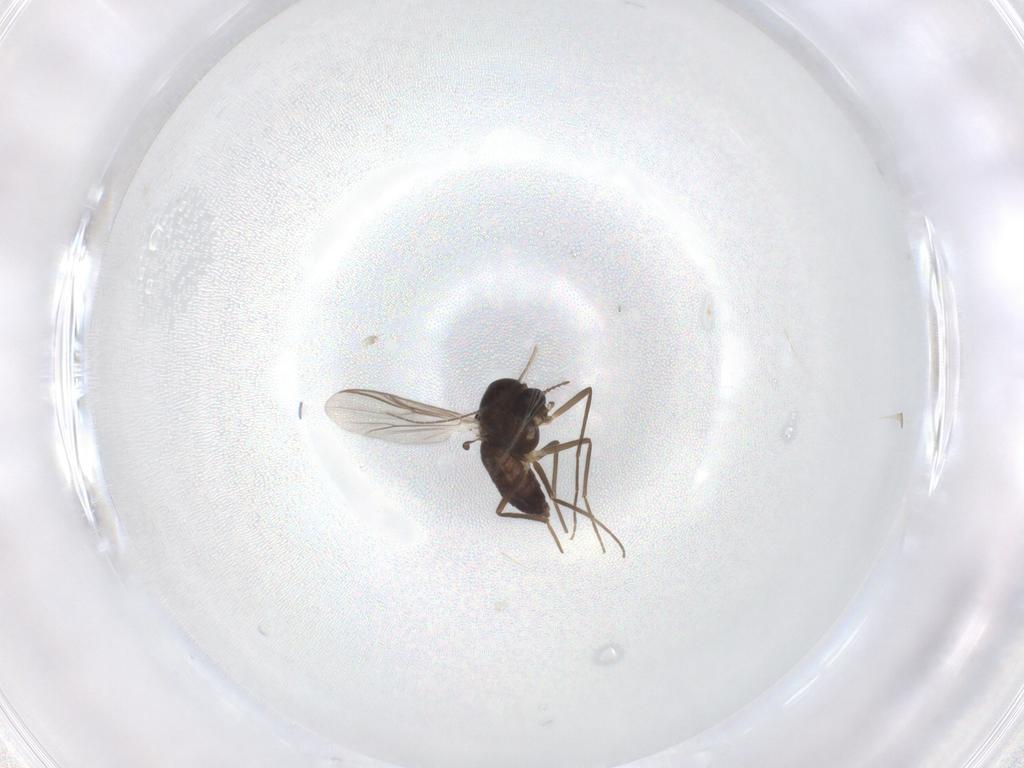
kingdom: Animalia
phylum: Arthropoda
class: Insecta
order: Diptera
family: Chironomidae
